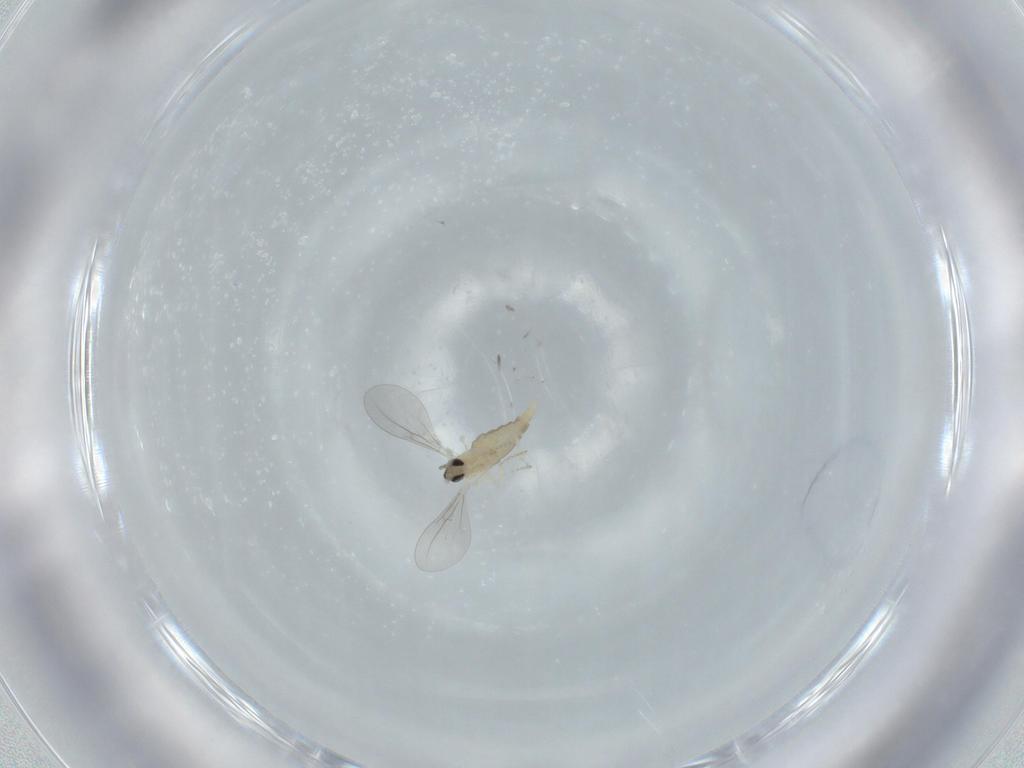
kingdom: Animalia
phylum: Arthropoda
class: Insecta
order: Diptera
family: Cecidomyiidae
